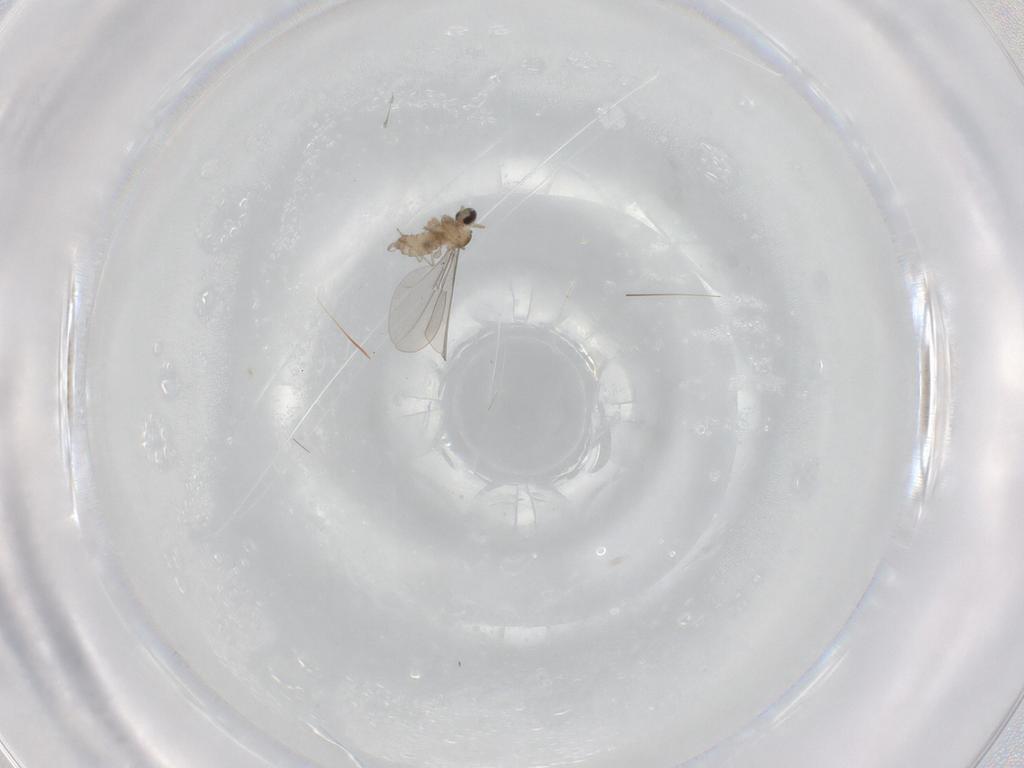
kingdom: Animalia
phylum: Arthropoda
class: Insecta
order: Diptera
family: Cecidomyiidae
